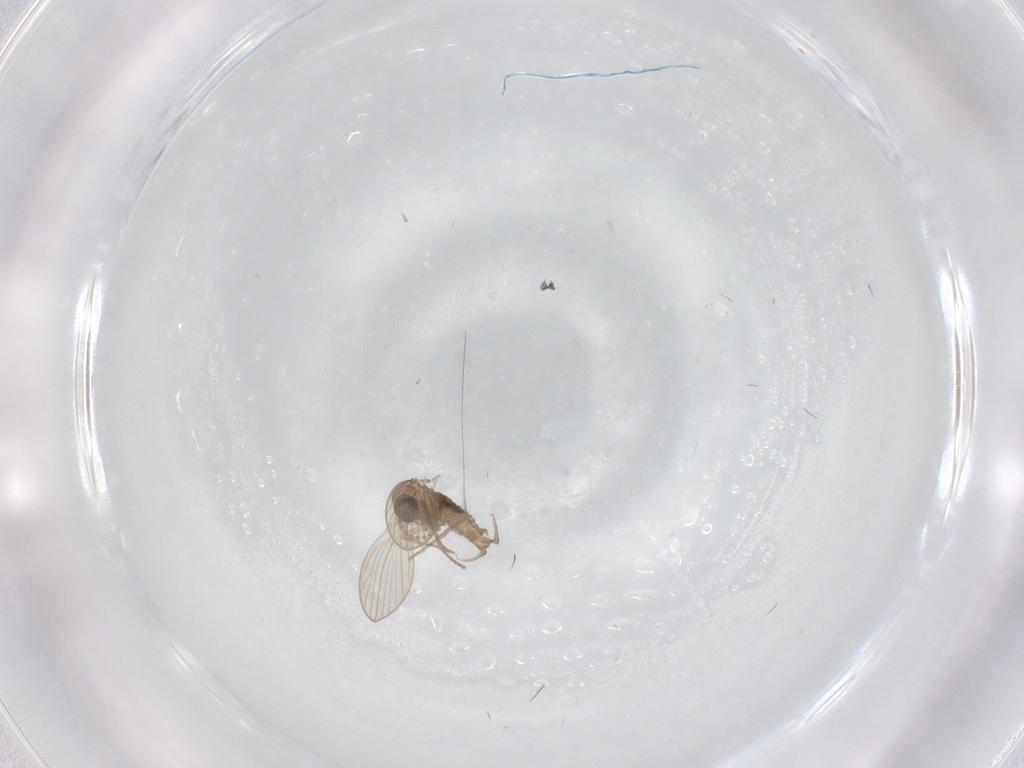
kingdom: Animalia
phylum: Arthropoda
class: Insecta
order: Diptera
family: Psychodidae
